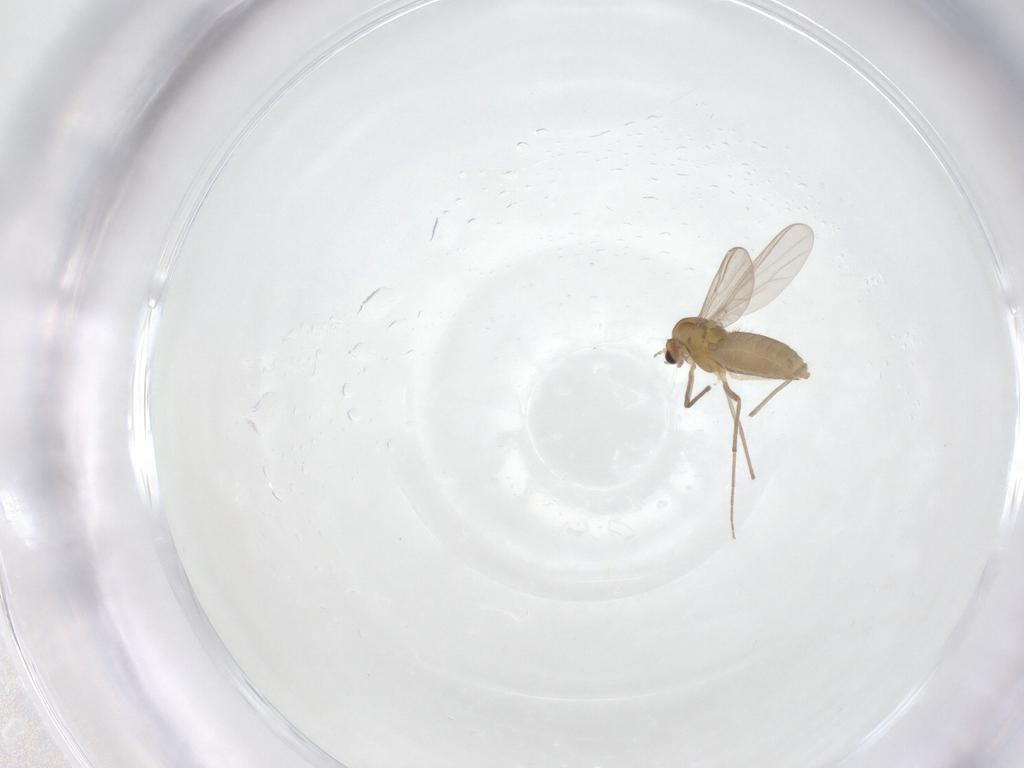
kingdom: Animalia
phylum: Arthropoda
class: Insecta
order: Diptera
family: Chironomidae
